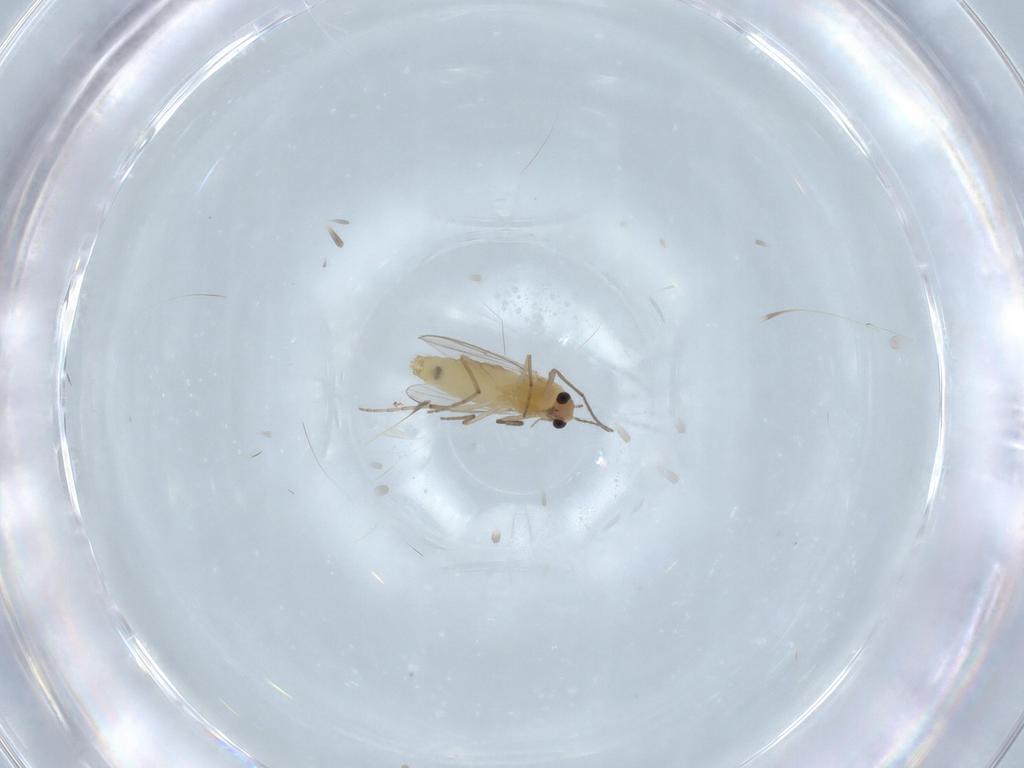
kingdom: Animalia
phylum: Arthropoda
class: Insecta
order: Diptera
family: Chironomidae
